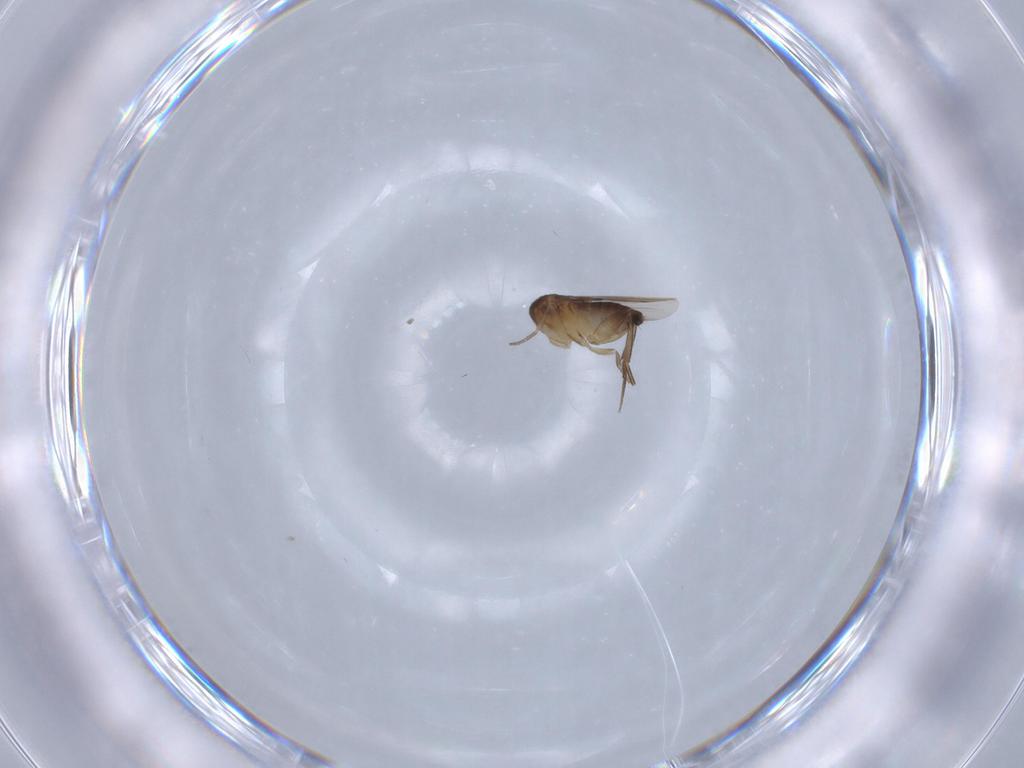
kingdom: Animalia
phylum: Arthropoda
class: Insecta
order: Diptera
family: Phoridae
